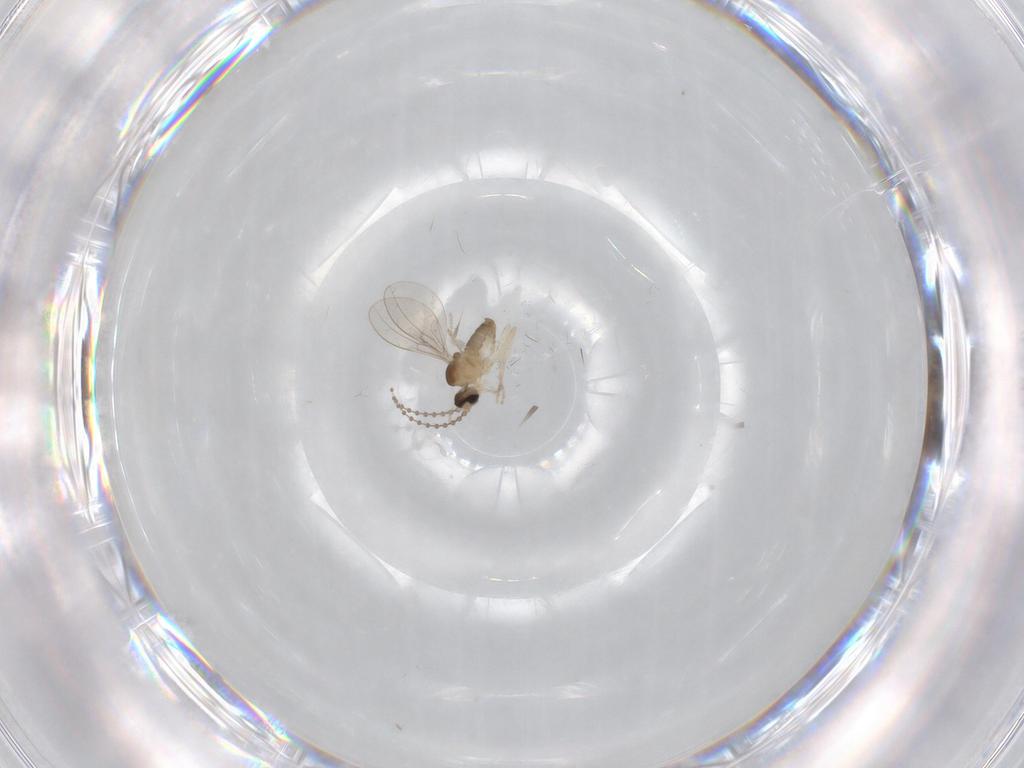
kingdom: Animalia
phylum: Arthropoda
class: Insecta
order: Diptera
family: Cecidomyiidae
